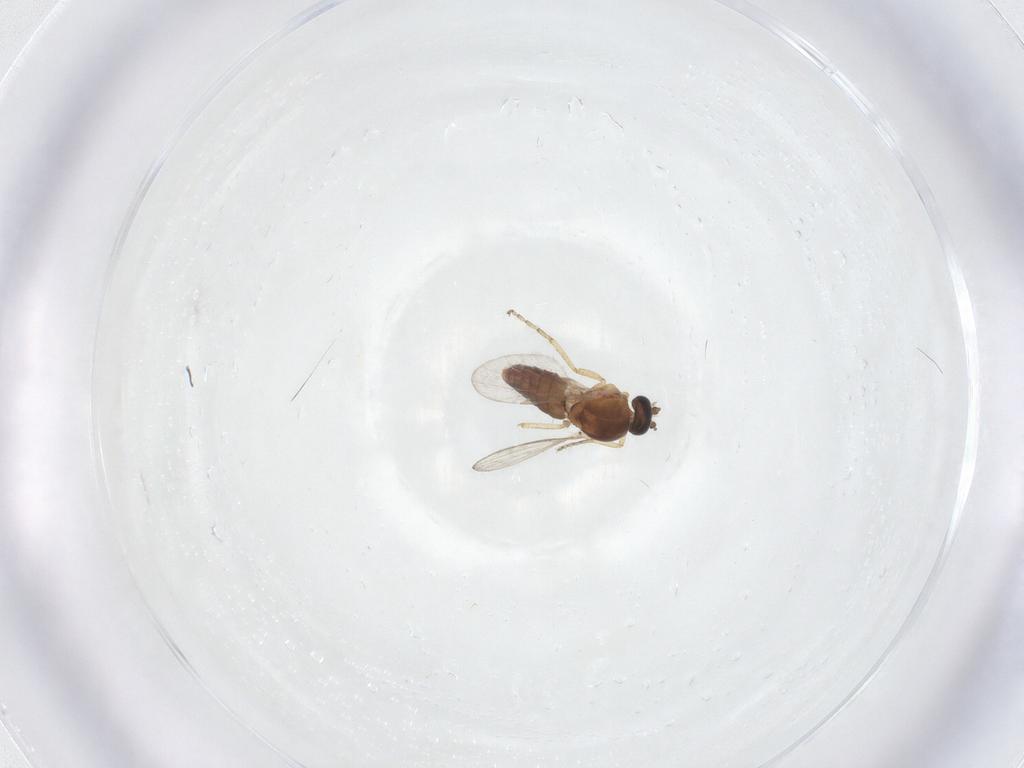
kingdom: Animalia
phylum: Arthropoda
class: Insecta
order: Diptera
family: Ceratopogonidae
